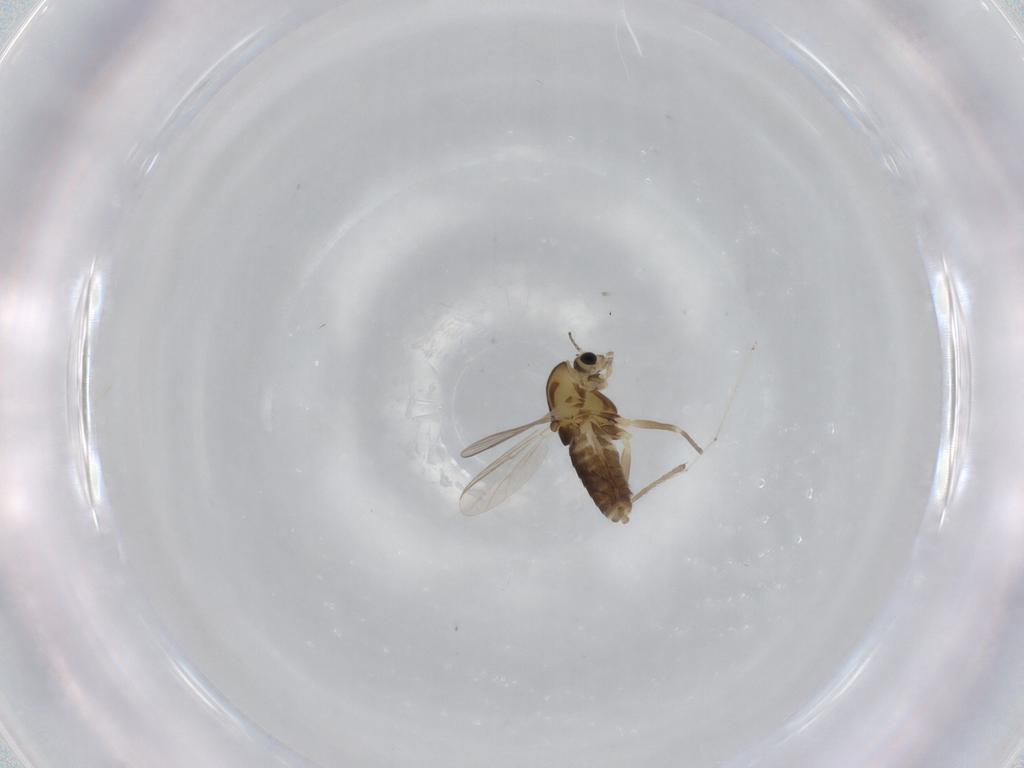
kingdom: Animalia
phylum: Arthropoda
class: Insecta
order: Diptera
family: Chironomidae
